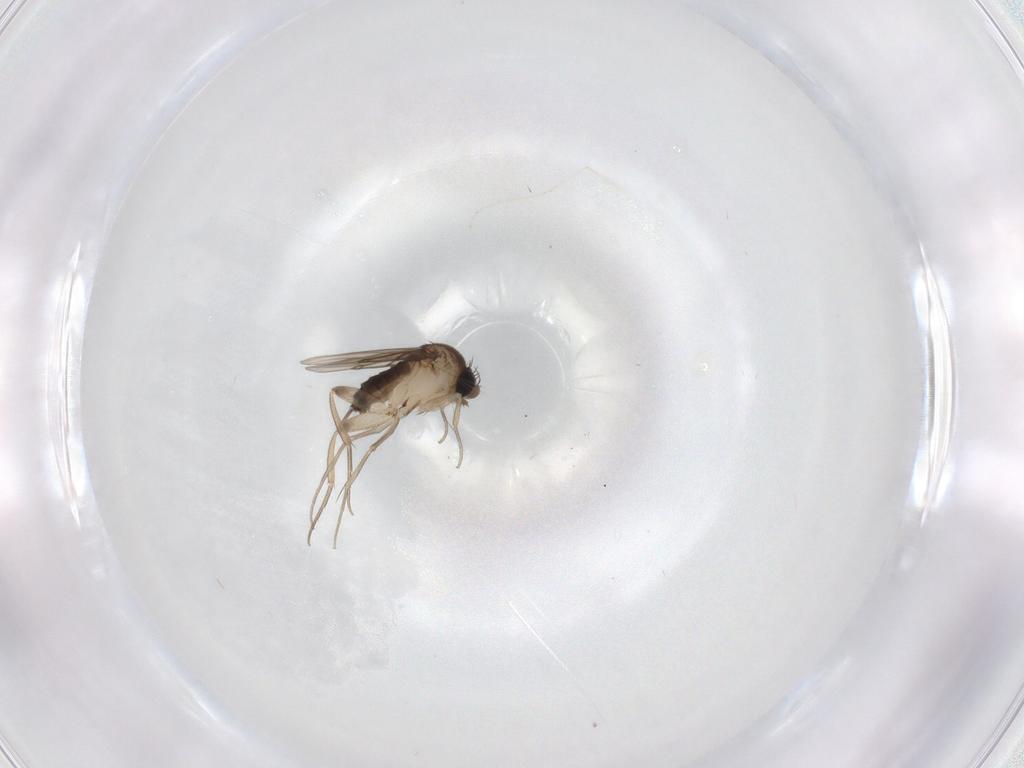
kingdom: Animalia
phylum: Arthropoda
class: Insecta
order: Diptera
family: Phoridae
